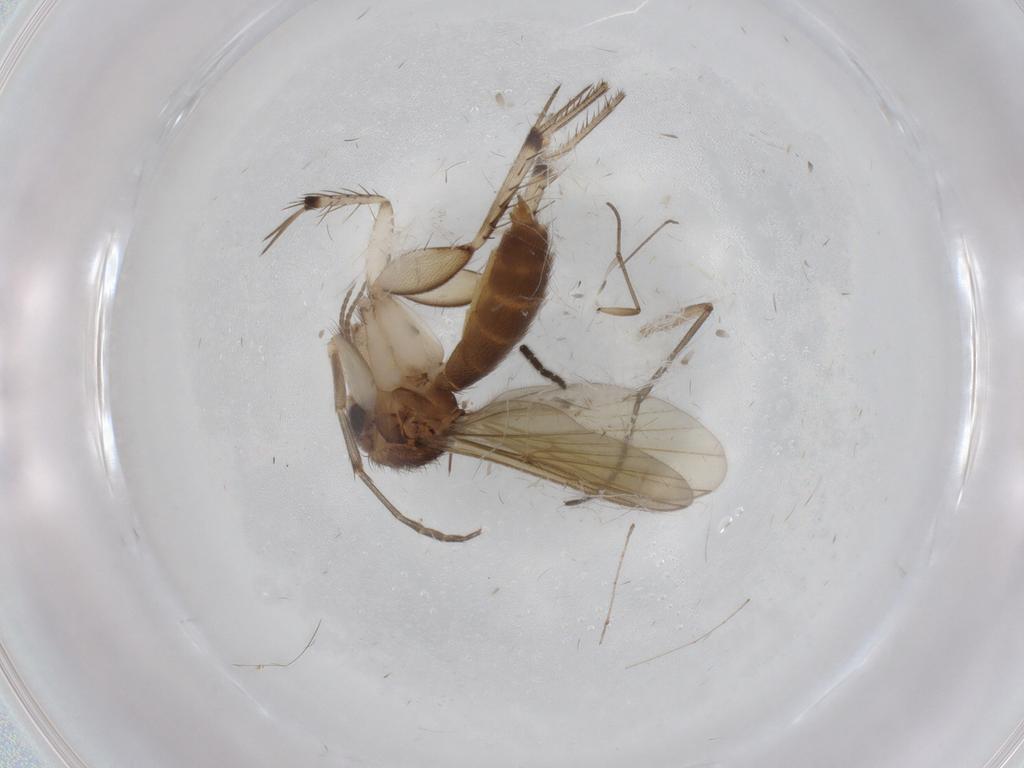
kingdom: Animalia
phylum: Arthropoda
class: Insecta
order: Diptera
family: Mycetophilidae
